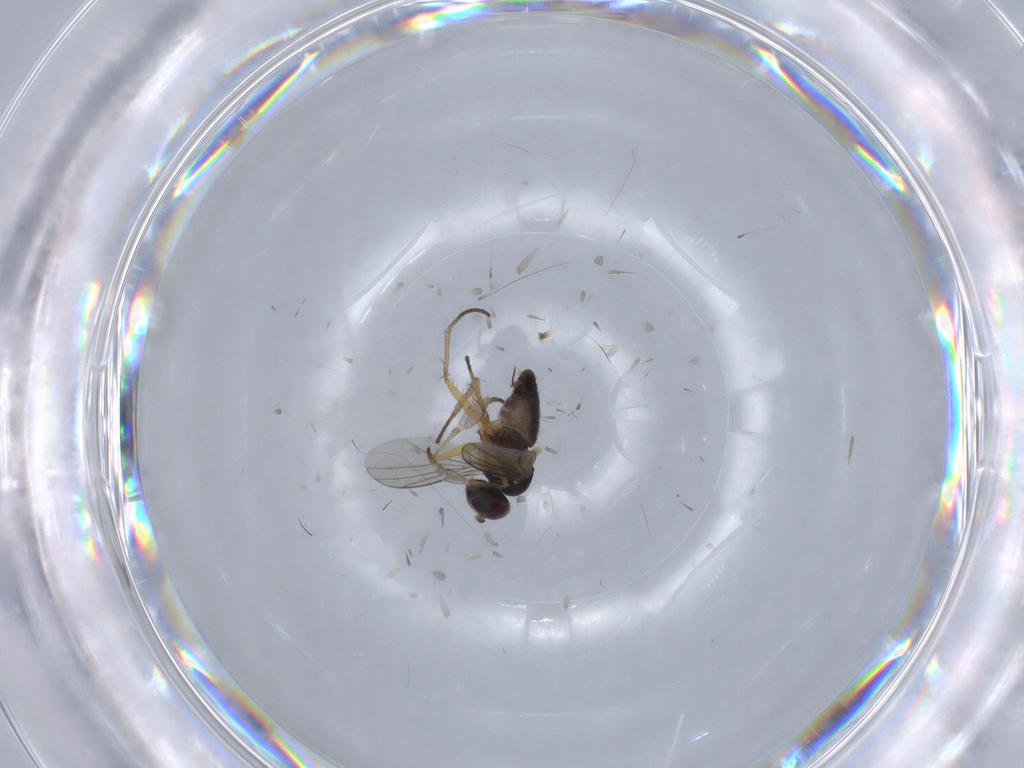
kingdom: Animalia
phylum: Arthropoda
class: Insecta
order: Diptera
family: Dolichopodidae
